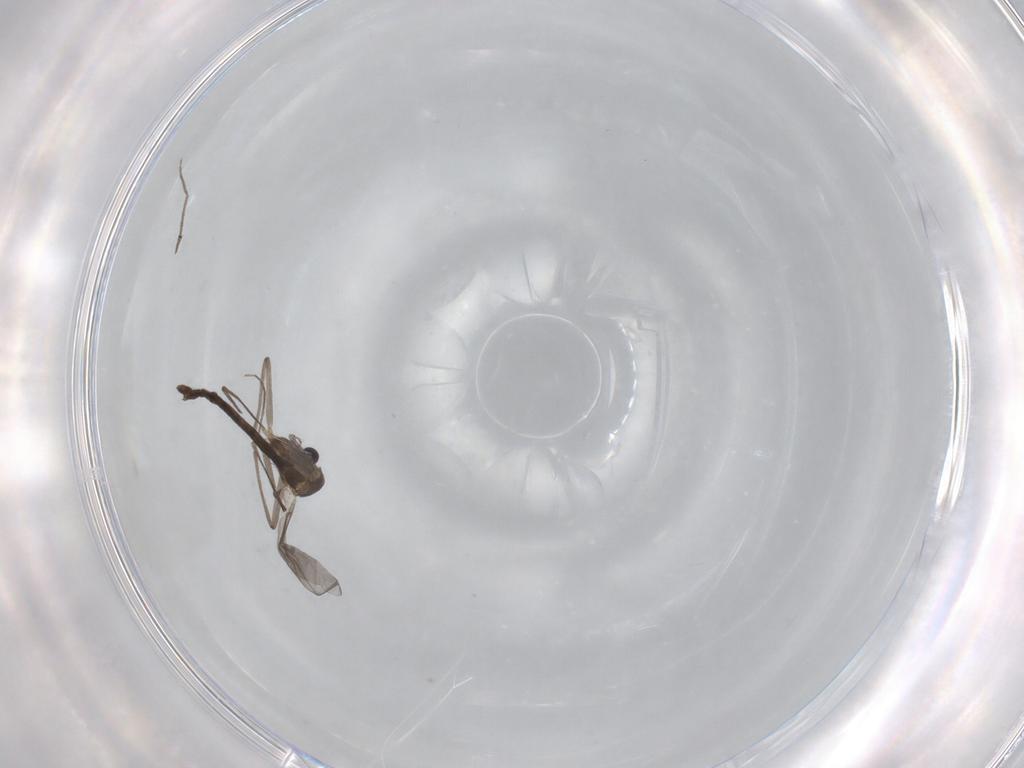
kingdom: Animalia
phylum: Arthropoda
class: Insecta
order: Diptera
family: Chironomidae
